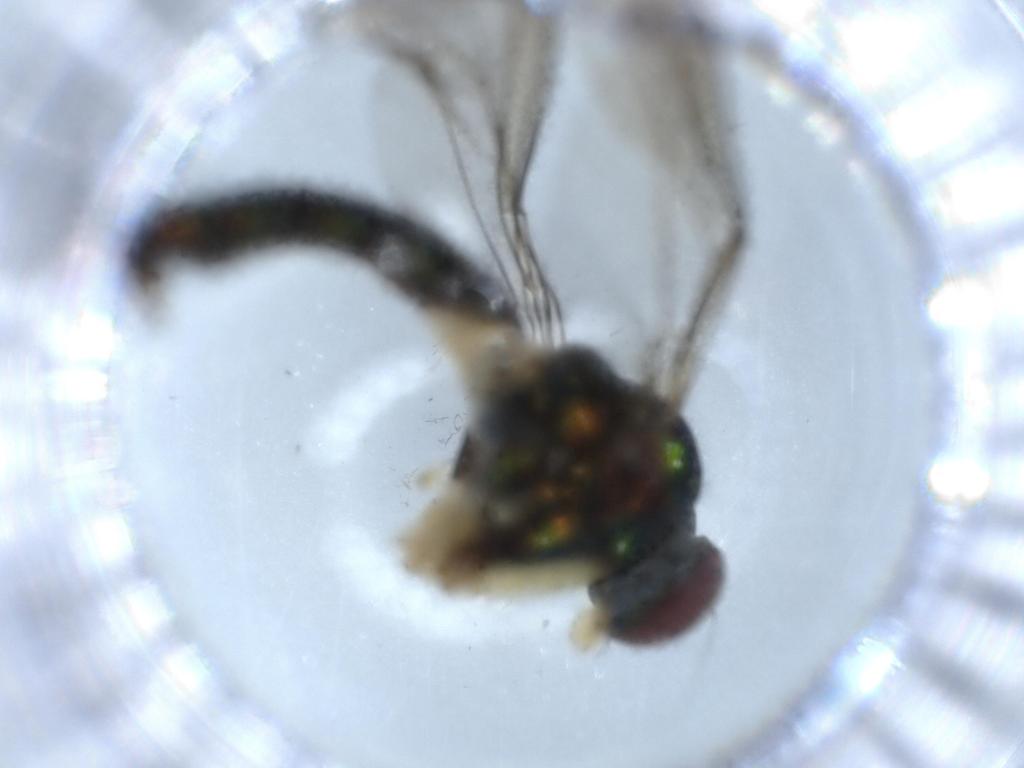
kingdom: Animalia
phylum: Arthropoda
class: Insecta
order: Diptera
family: Dolichopodidae
